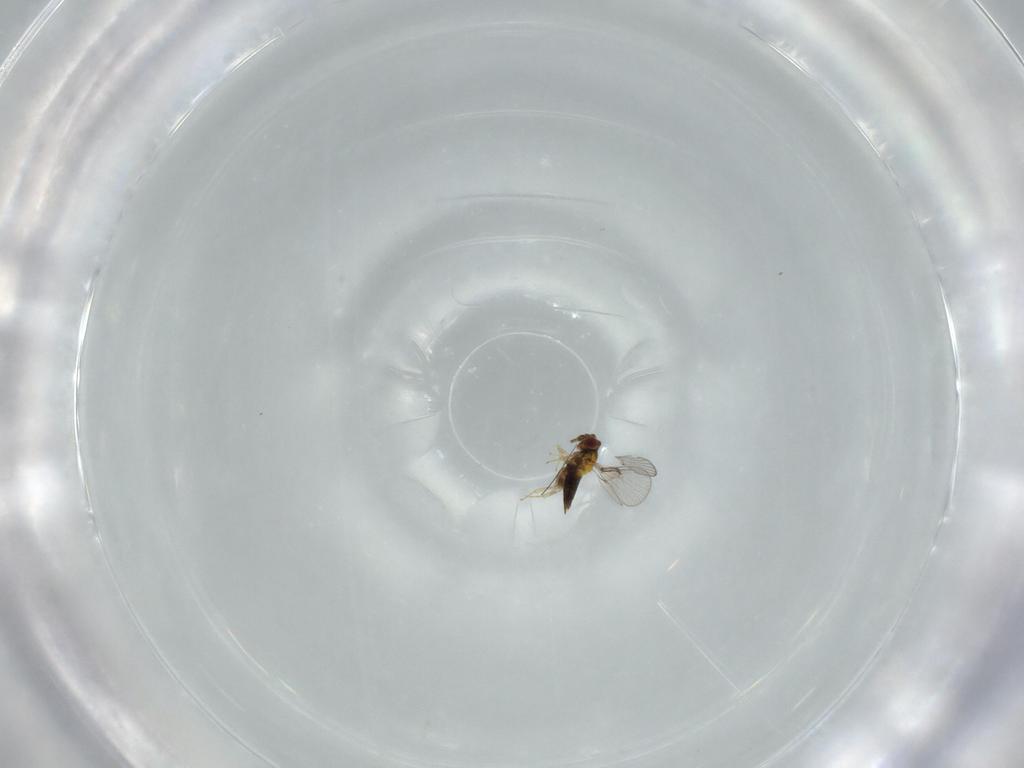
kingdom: Animalia
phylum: Arthropoda
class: Insecta
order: Hymenoptera
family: Trichogrammatidae
